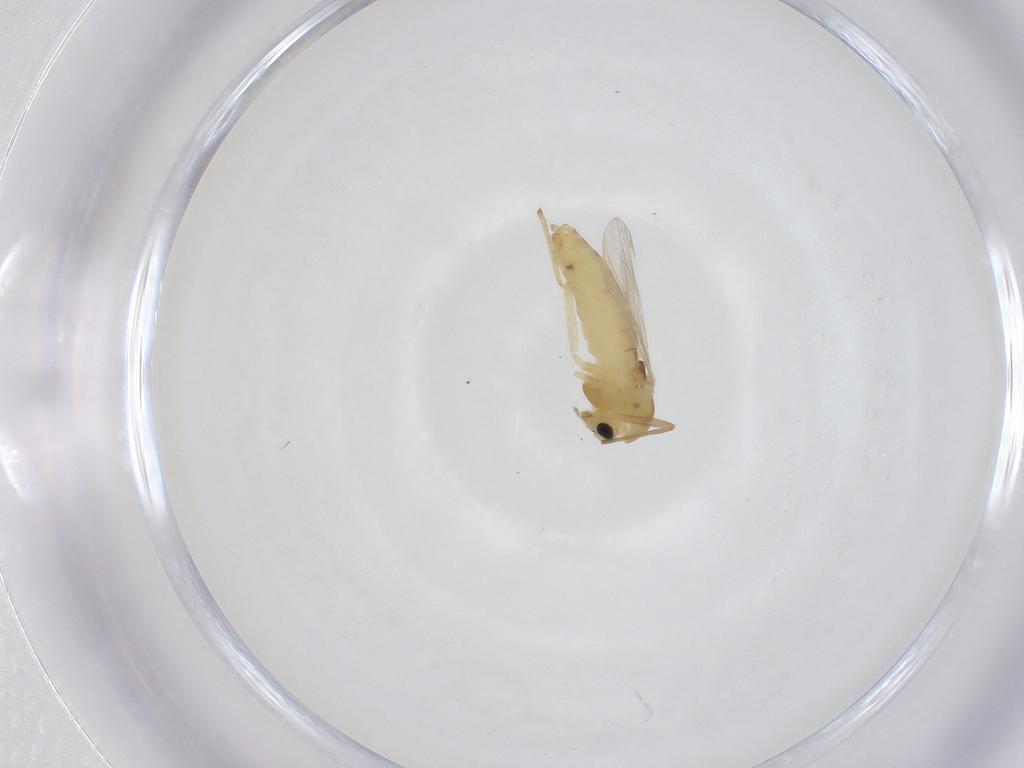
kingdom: Animalia
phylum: Arthropoda
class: Insecta
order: Diptera
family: Chironomidae
